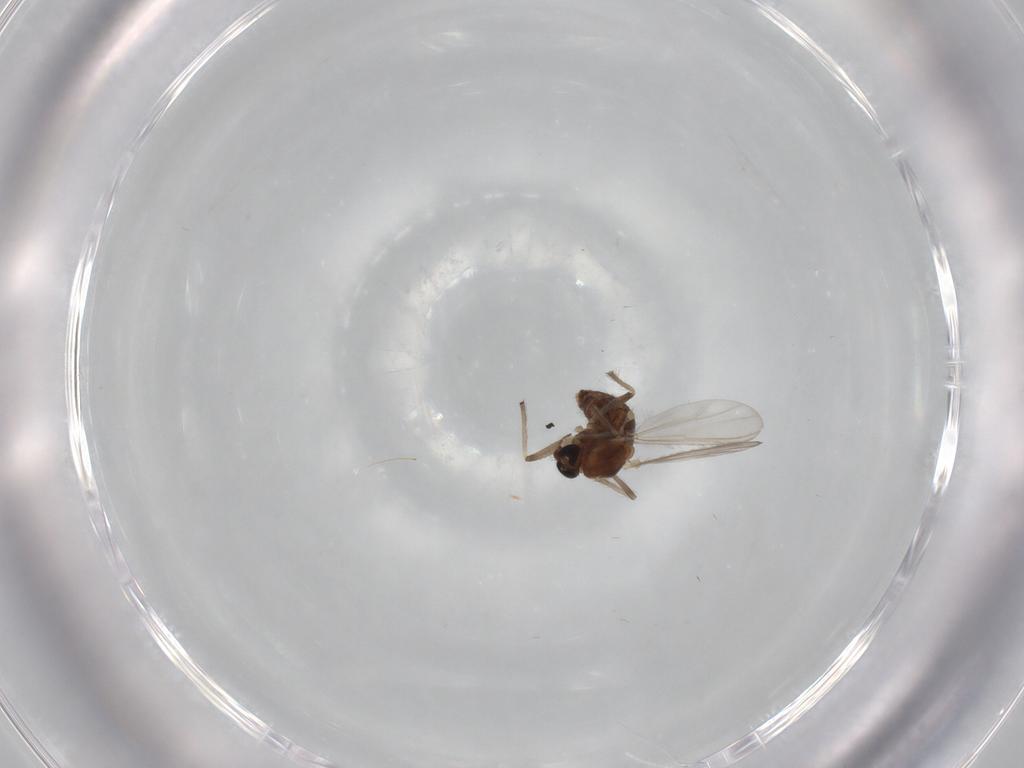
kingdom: Animalia
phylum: Arthropoda
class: Insecta
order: Diptera
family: Chironomidae
